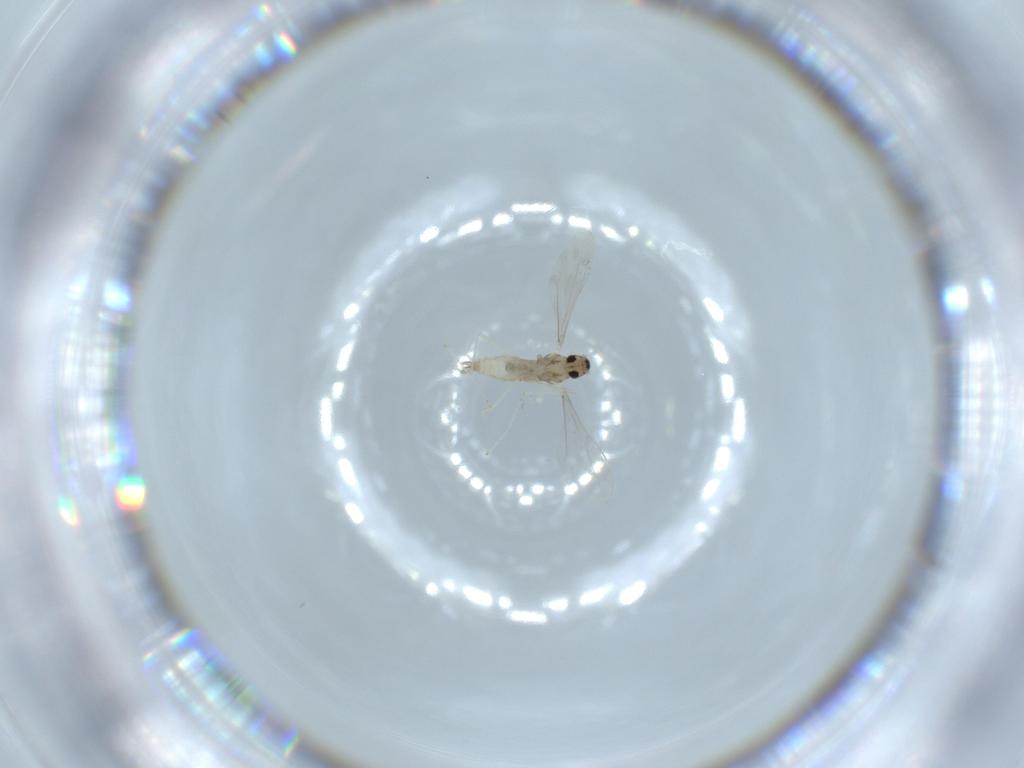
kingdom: Animalia
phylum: Arthropoda
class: Insecta
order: Diptera
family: Cecidomyiidae
